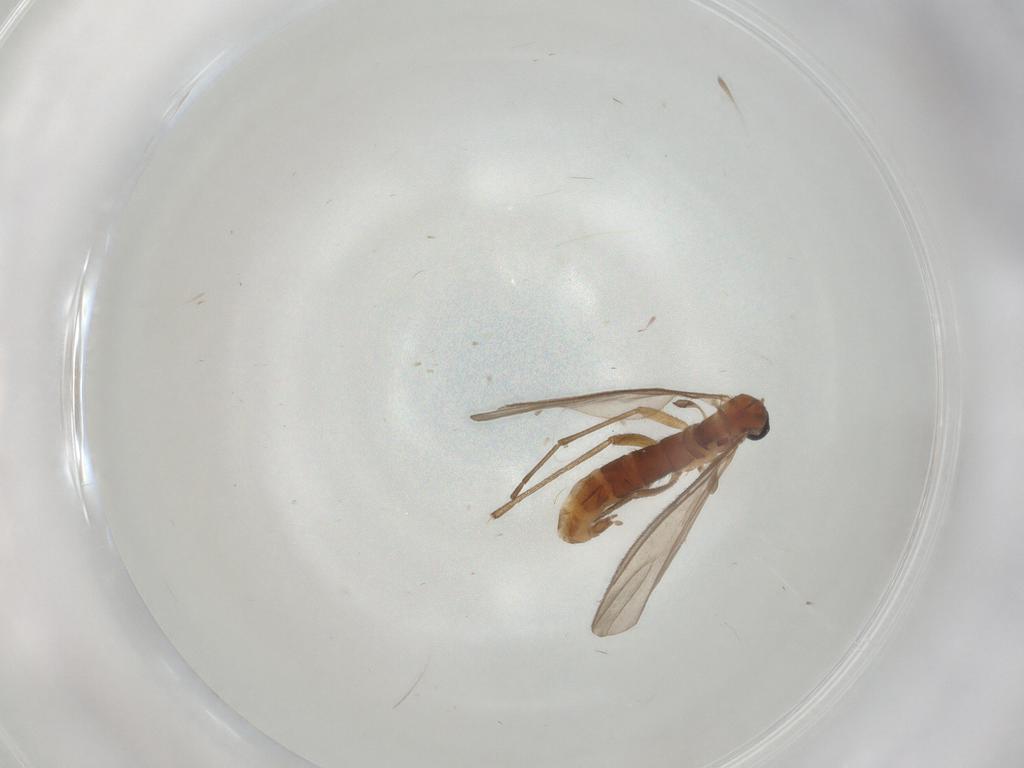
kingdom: Animalia
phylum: Arthropoda
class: Insecta
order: Diptera
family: Sciaridae
